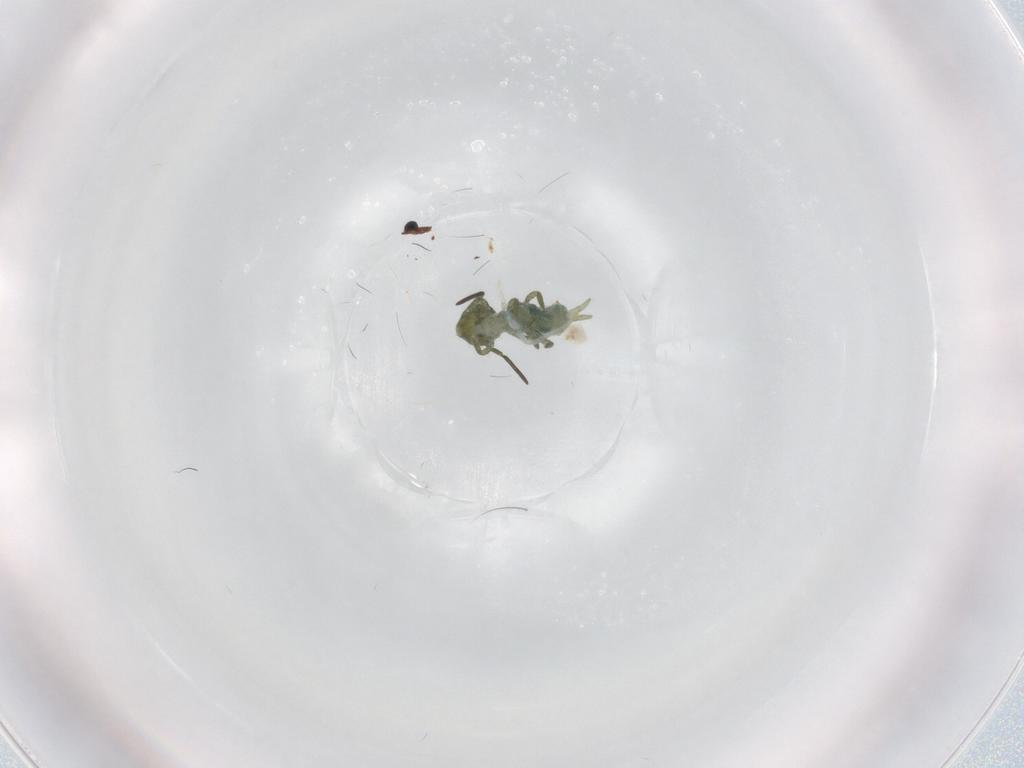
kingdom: Animalia
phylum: Arthropoda
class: Collembola
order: Symphypleona
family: Sminthuridae
